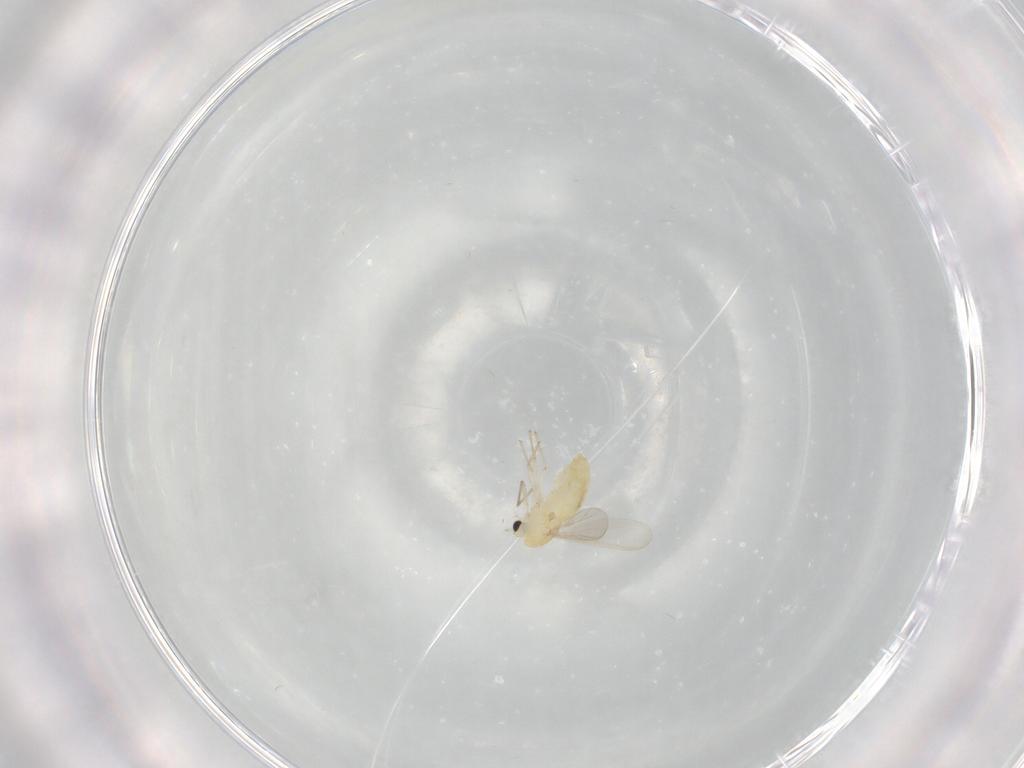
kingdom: Animalia
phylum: Arthropoda
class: Insecta
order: Diptera
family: Chironomidae
